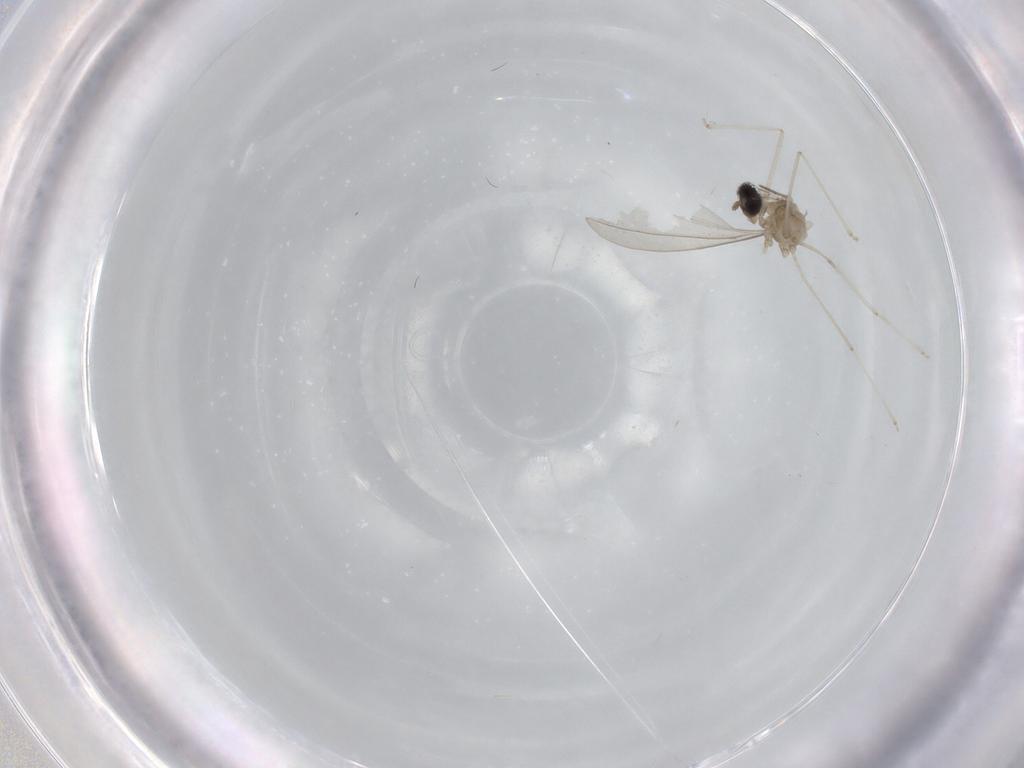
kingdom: Animalia
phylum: Arthropoda
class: Insecta
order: Diptera
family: Cecidomyiidae
